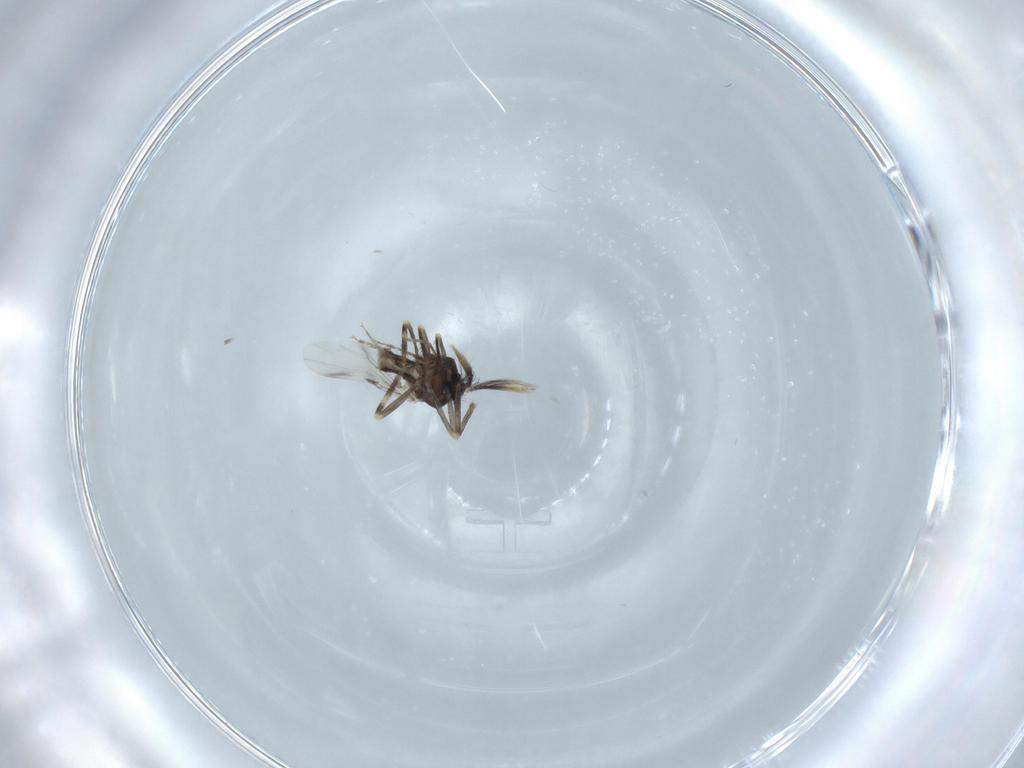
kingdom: Animalia
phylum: Arthropoda
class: Insecta
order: Diptera
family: Ceratopogonidae
